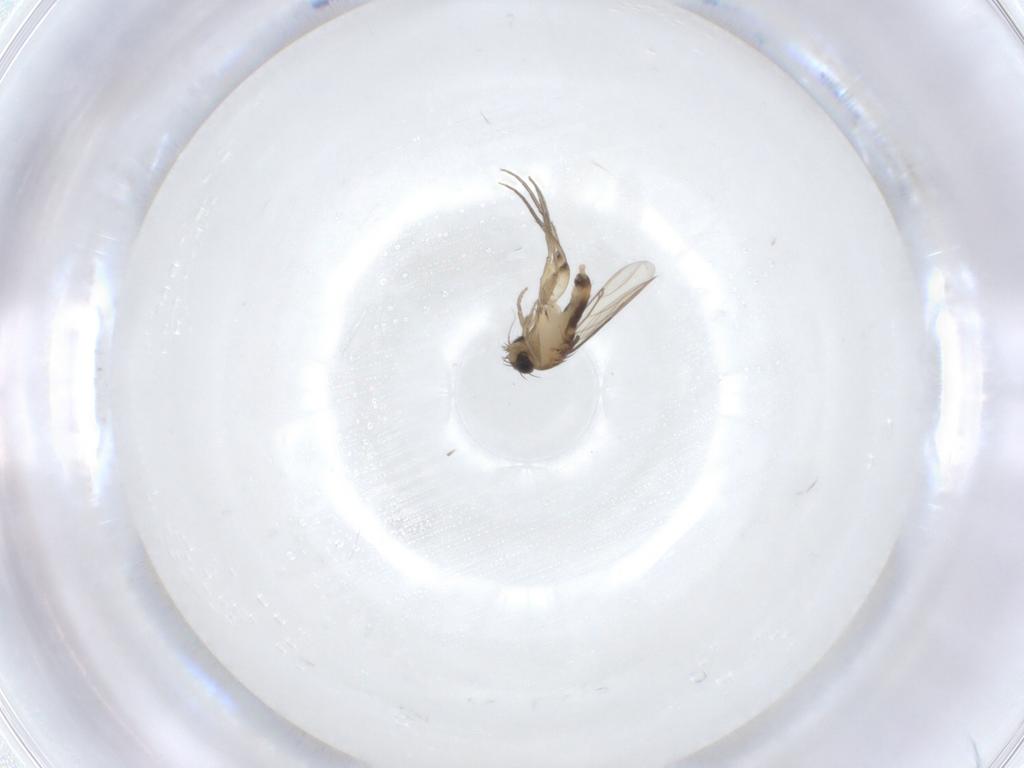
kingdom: Animalia
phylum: Arthropoda
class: Insecta
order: Diptera
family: Phoridae
